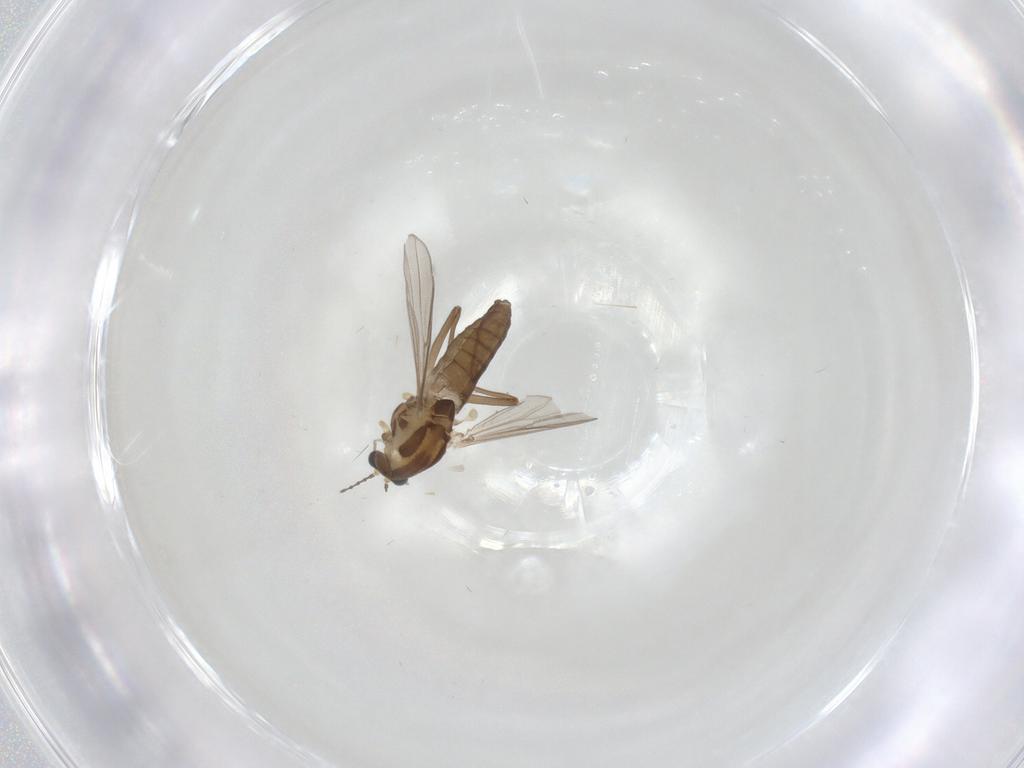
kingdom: Animalia
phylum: Arthropoda
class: Insecta
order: Diptera
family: Chironomidae
